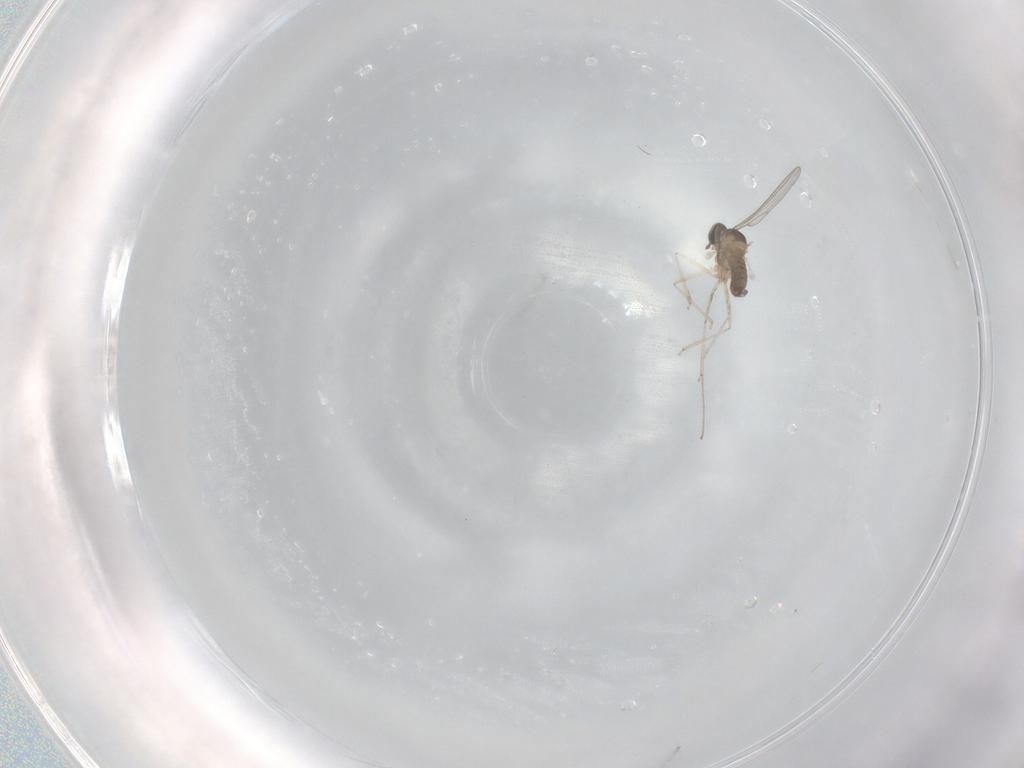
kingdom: Animalia
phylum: Arthropoda
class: Insecta
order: Diptera
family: Cecidomyiidae
